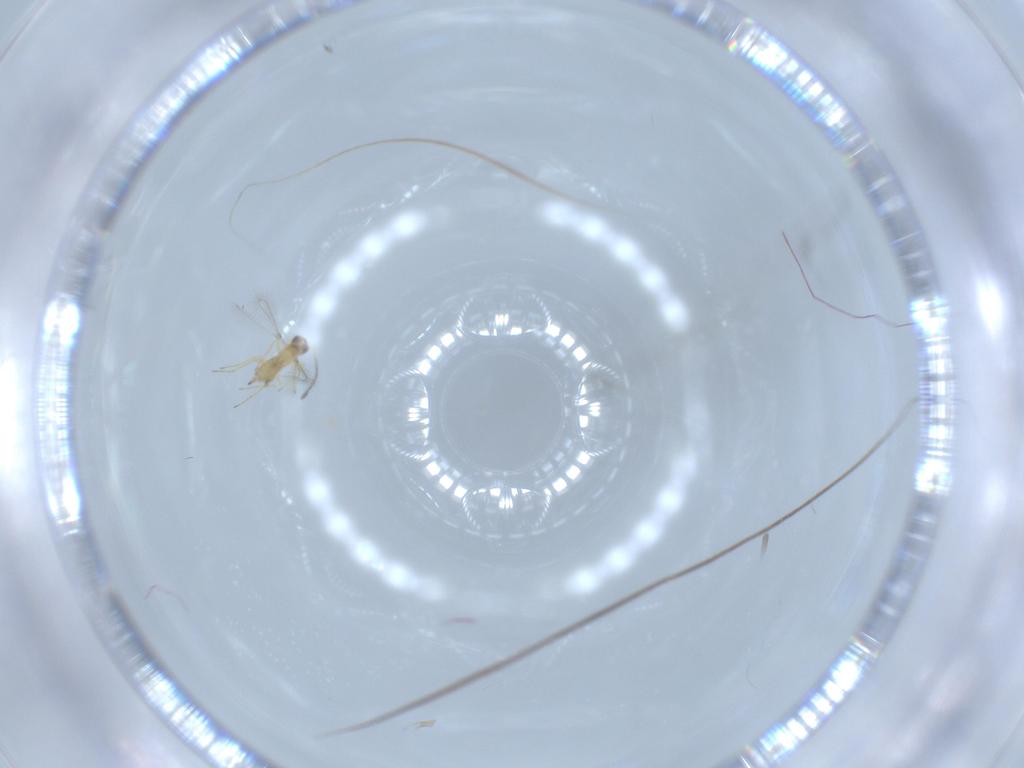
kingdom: Animalia
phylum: Arthropoda
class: Insecta
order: Hymenoptera
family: Mymaridae
